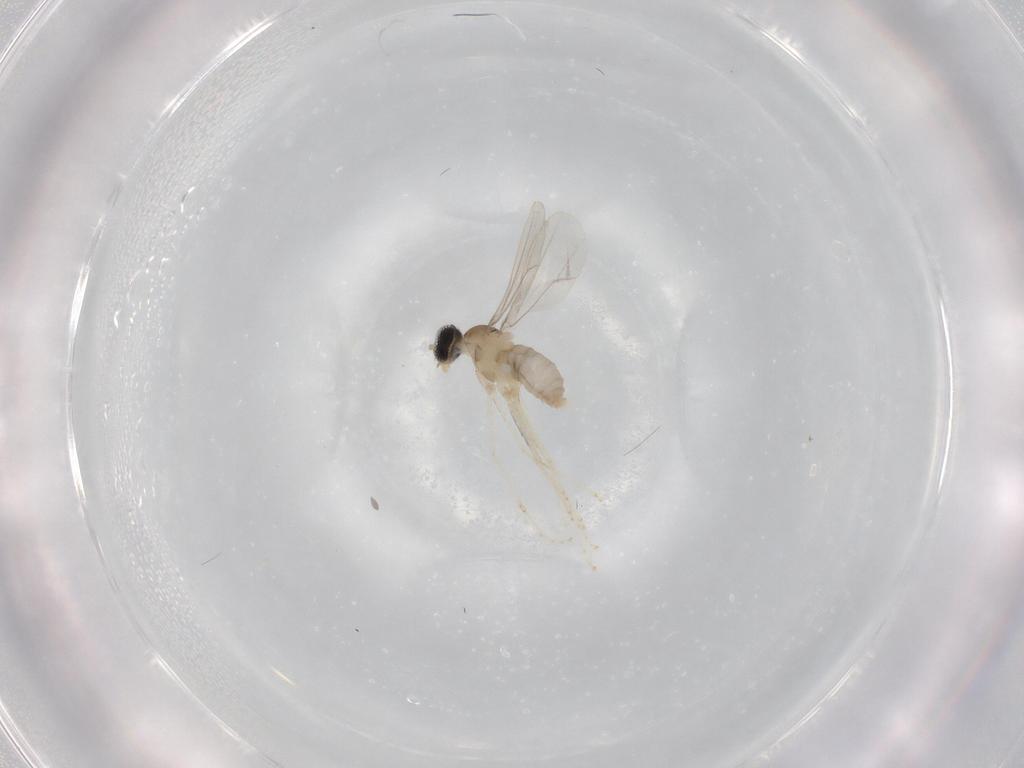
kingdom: Animalia
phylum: Arthropoda
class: Insecta
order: Diptera
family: Cecidomyiidae
